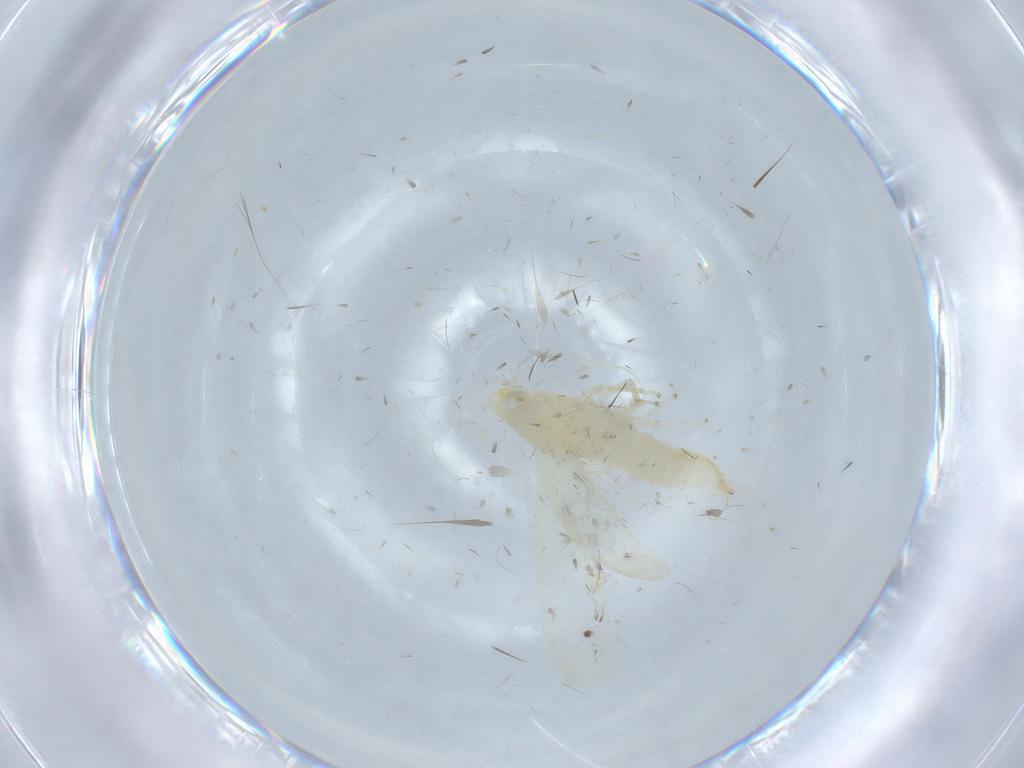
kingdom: Animalia
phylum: Arthropoda
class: Insecta
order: Hemiptera
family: Cicadellidae
